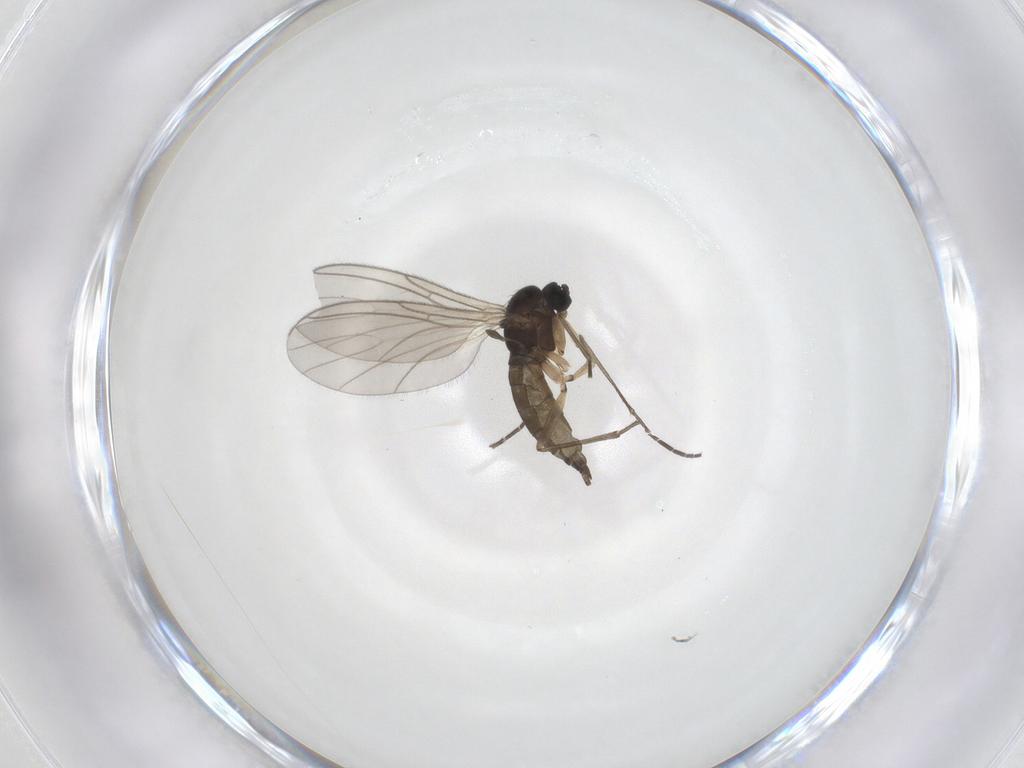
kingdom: Animalia
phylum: Arthropoda
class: Insecta
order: Diptera
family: Sciaridae
